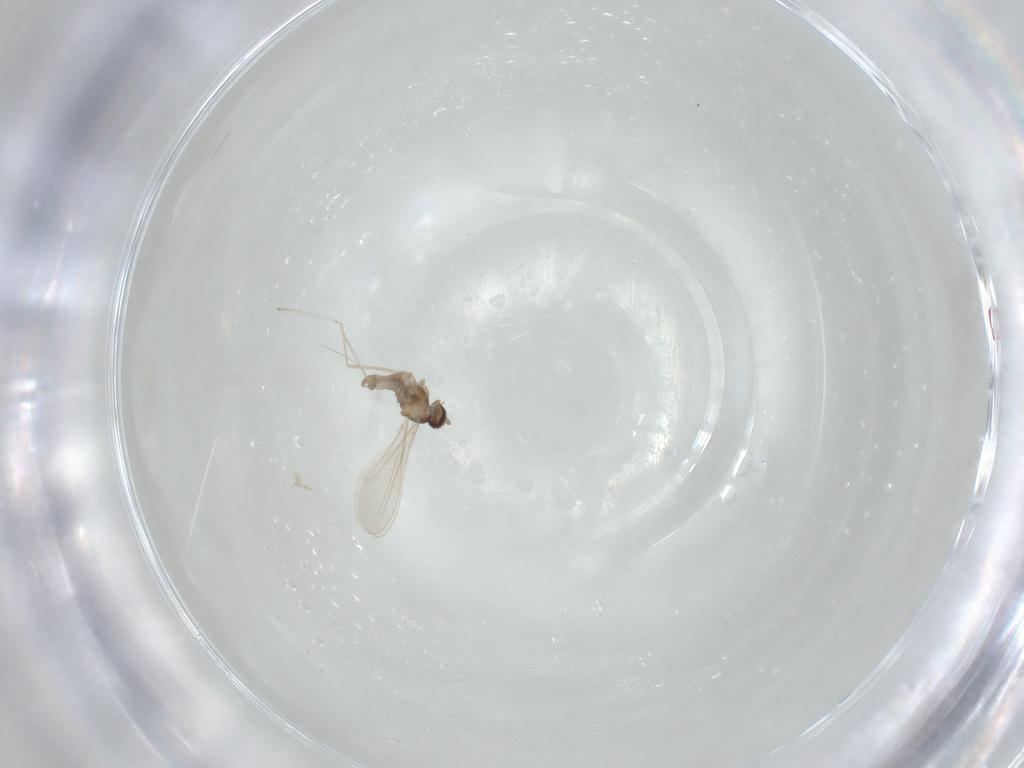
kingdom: Animalia
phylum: Arthropoda
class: Insecta
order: Diptera
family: Cecidomyiidae
